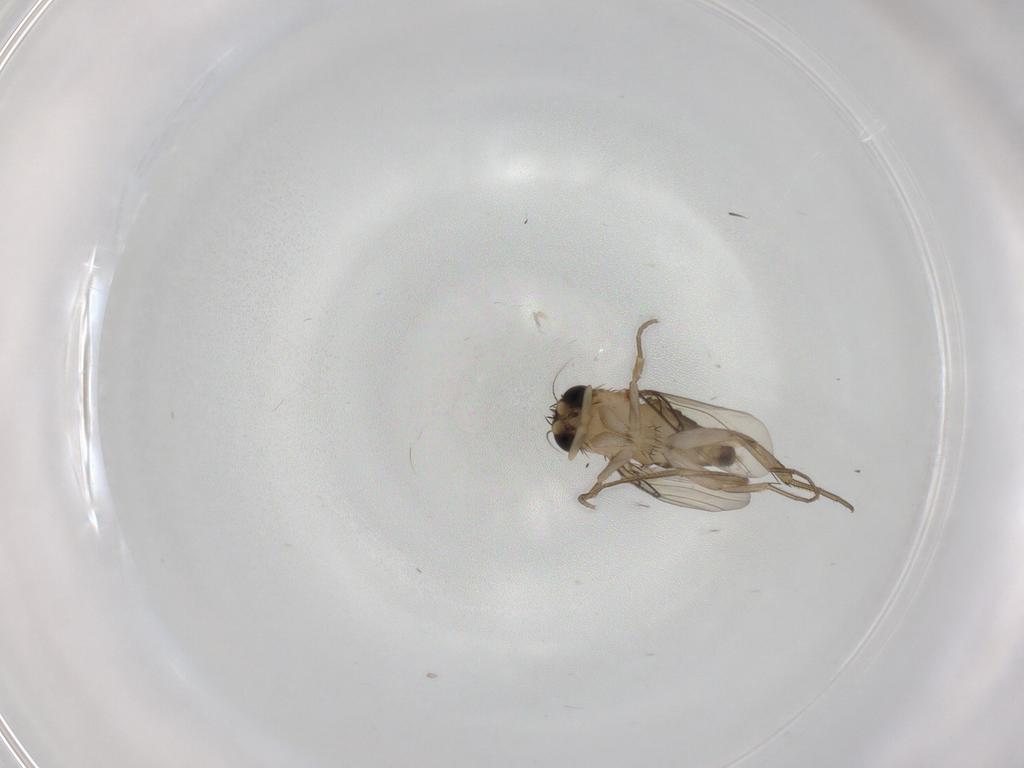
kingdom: Animalia
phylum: Arthropoda
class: Insecta
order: Diptera
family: Phoridae
